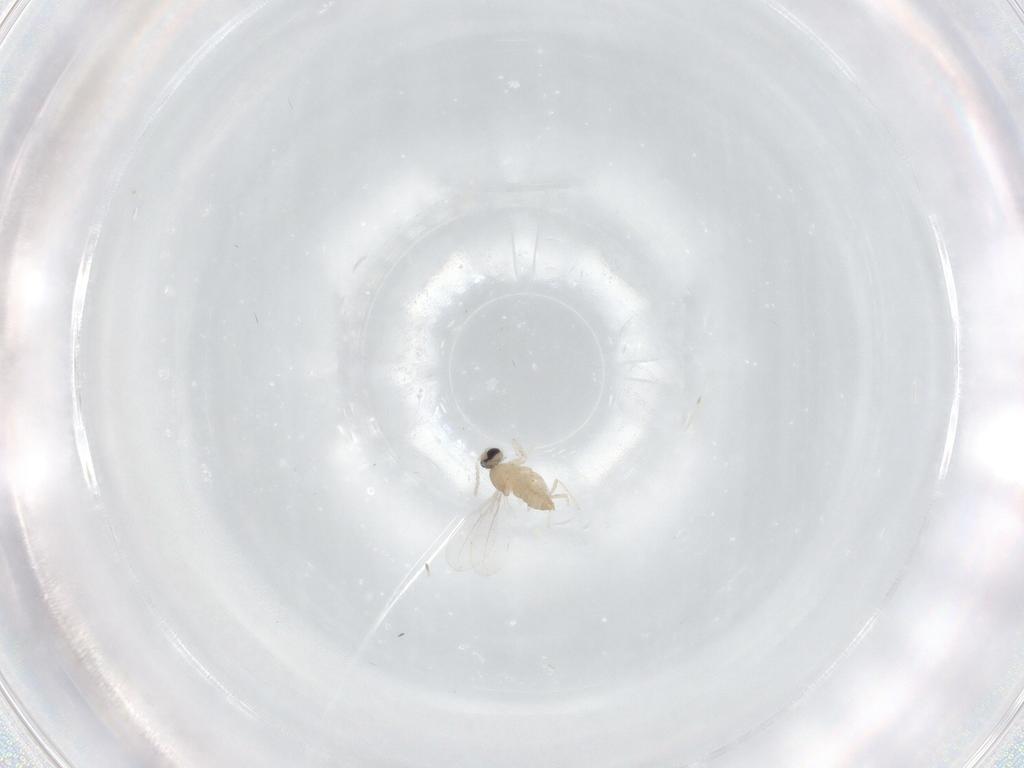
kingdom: Animalia
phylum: Arthropoda
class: Insecta
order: Diptera
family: Cecidomyiidae
